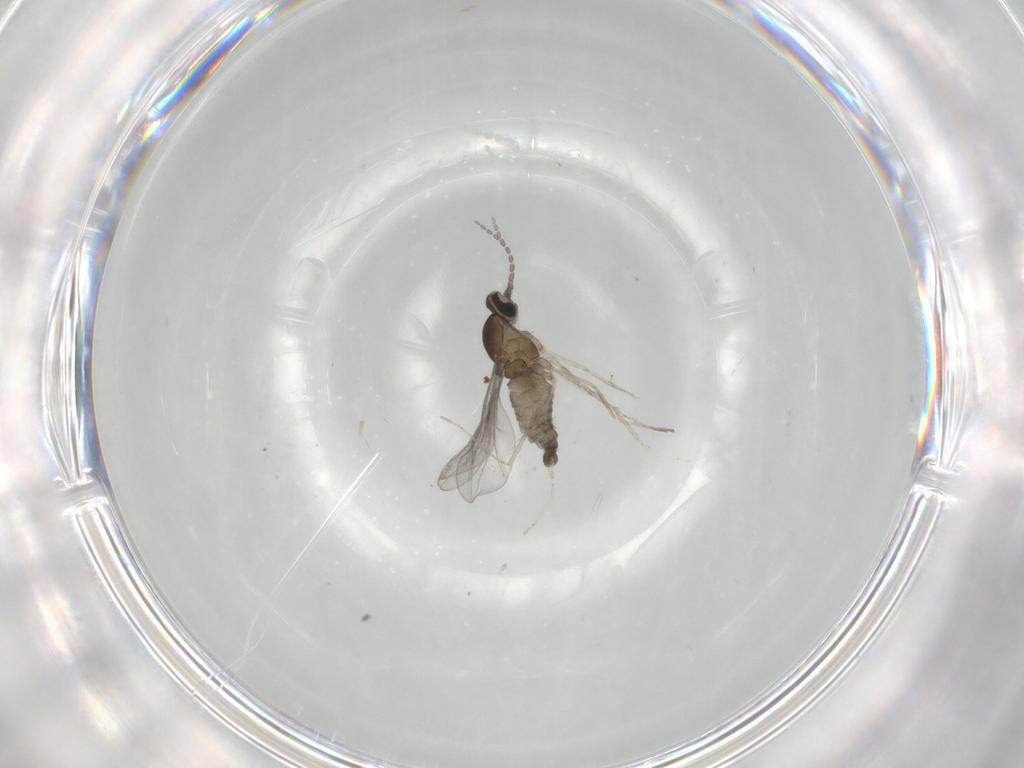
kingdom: Animalia
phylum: Arthropoda
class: Insecta
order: Diptera
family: Cecidomyiidae
